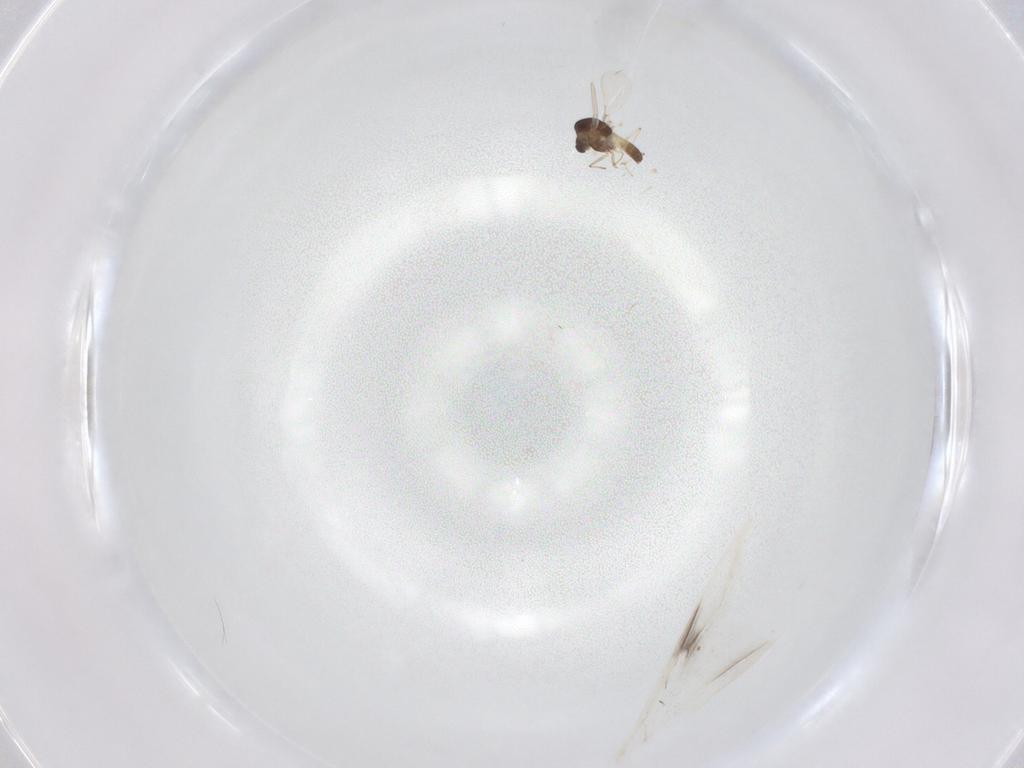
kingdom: Animalia
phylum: Arthropoda
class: Insecta
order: Diptera
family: Chironomidae
